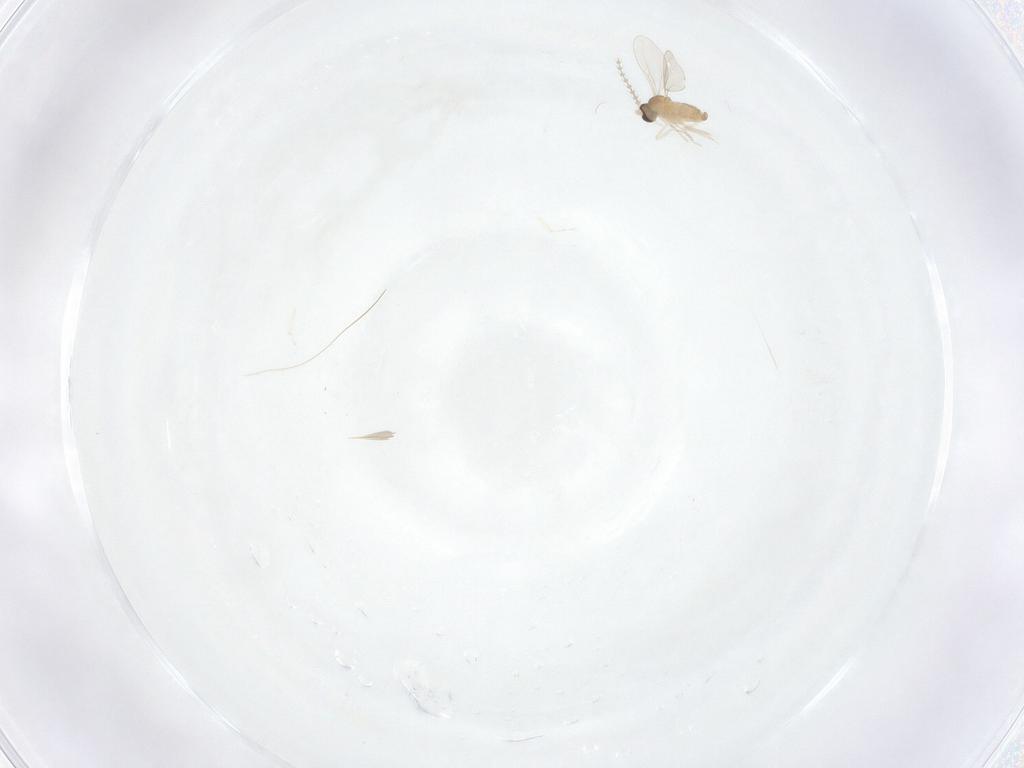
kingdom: Animalia
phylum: Arthropoda
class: Insecta
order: Diptera
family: Cecidomyiidae
